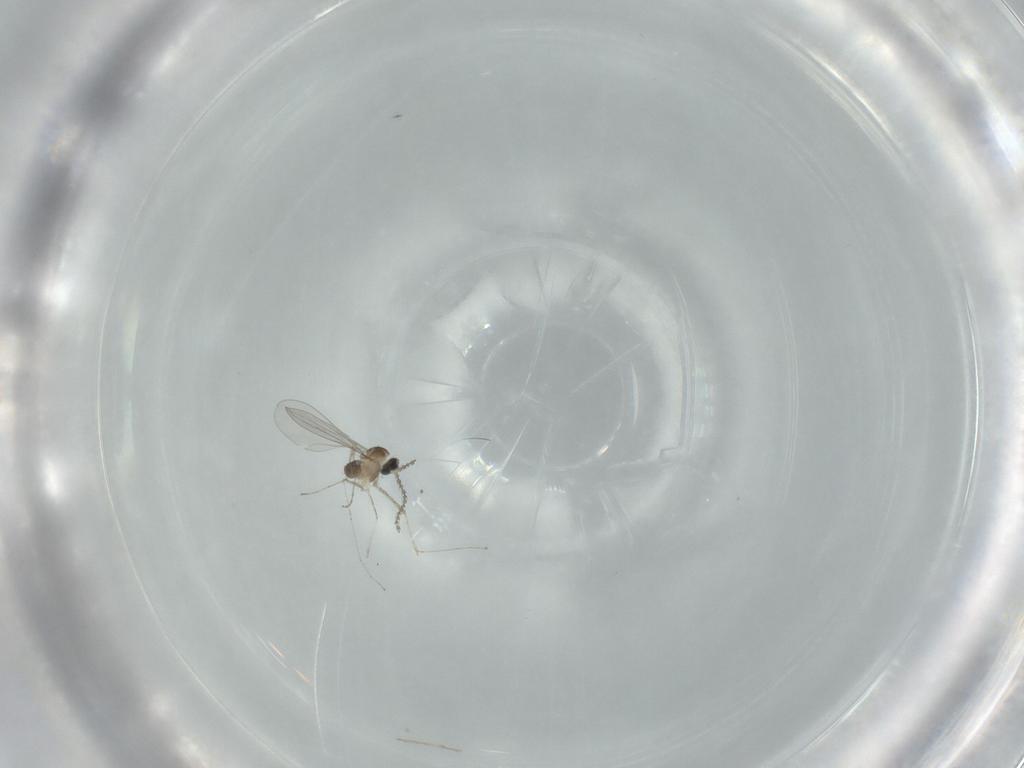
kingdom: Animalia
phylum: Arthropoda
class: Insecta
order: Diptera
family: Cecidomyiidae
